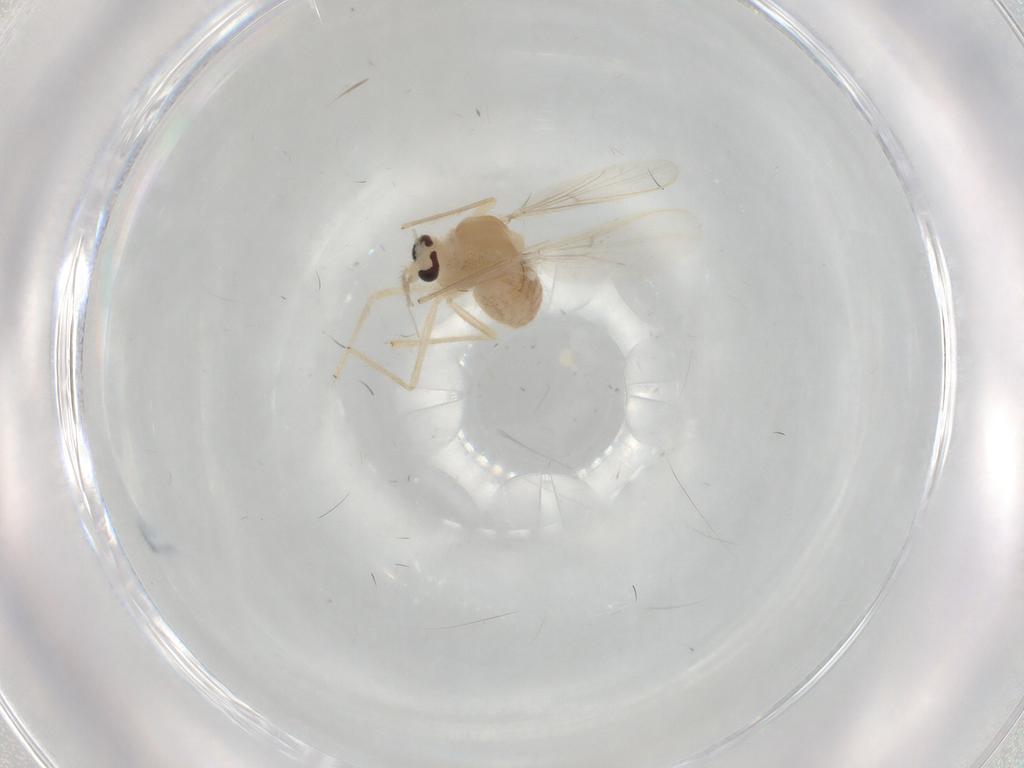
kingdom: Animalia
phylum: Arthropoda
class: Insecta
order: Diptera
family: Chironomidae
